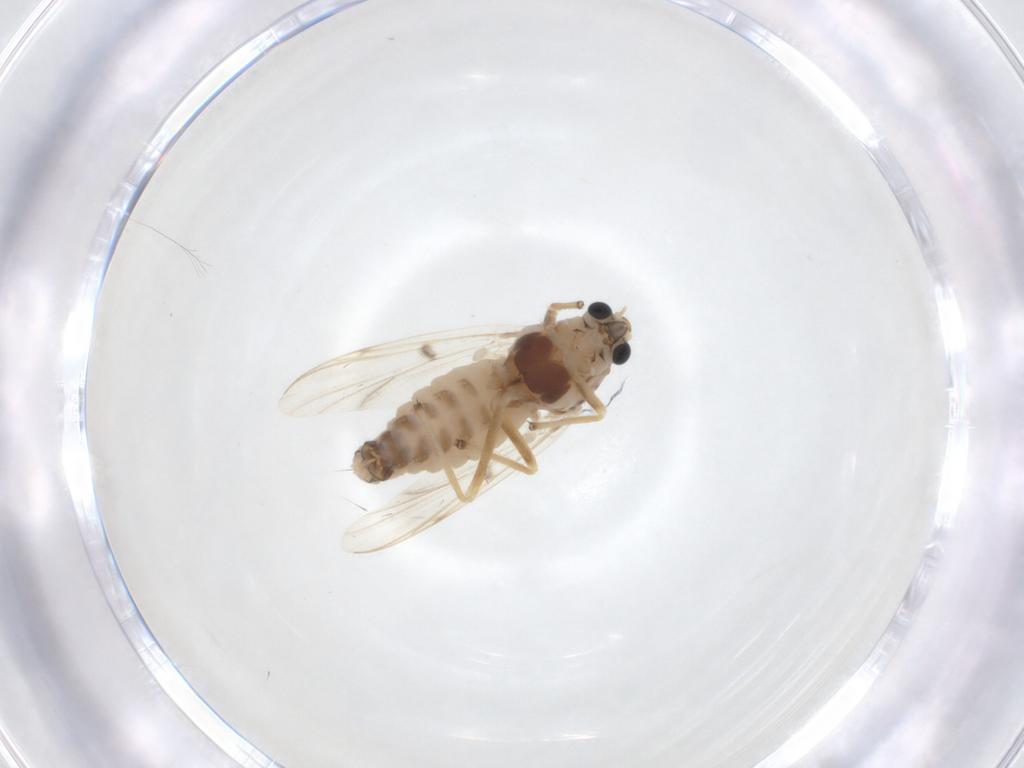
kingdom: Animalia
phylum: Arthropoda
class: Insecta
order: Diptera
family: Chironomidae
